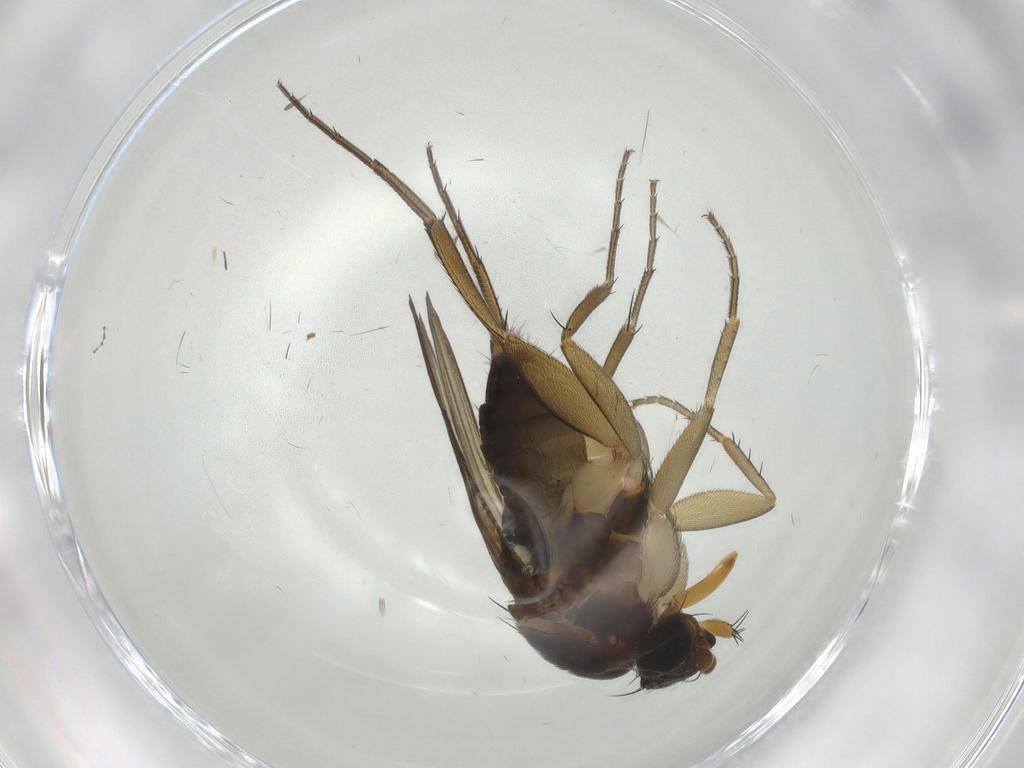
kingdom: Animalia
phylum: Arthropoda
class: Insecta
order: Diptera
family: Phoridae
